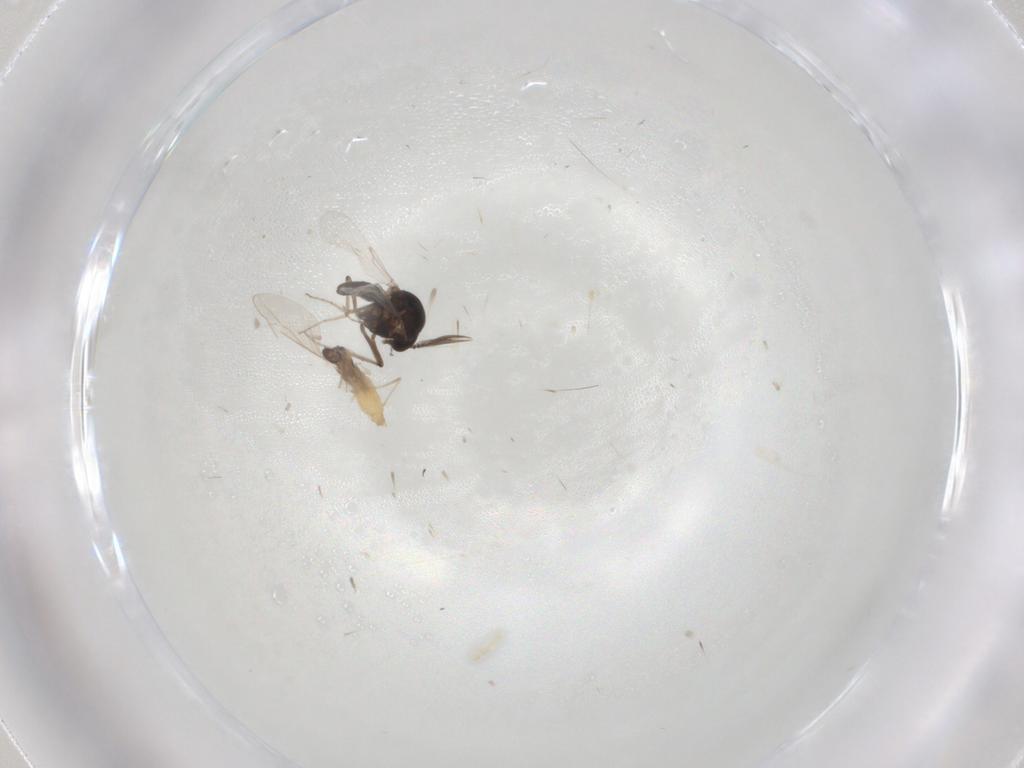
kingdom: Animalia
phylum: Arthropoda
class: Insecta
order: Diptera
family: Cecidomyiidae
